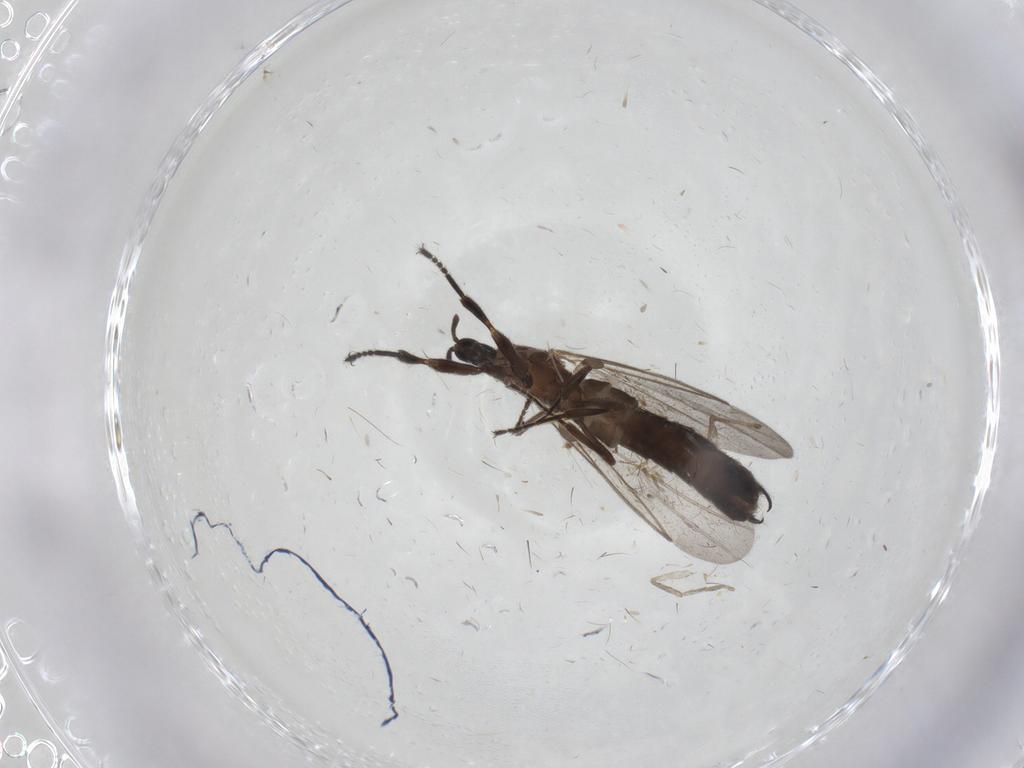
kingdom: Animalia
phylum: Arthropoda
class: Insecta
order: Diptera
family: Scatopsidae
